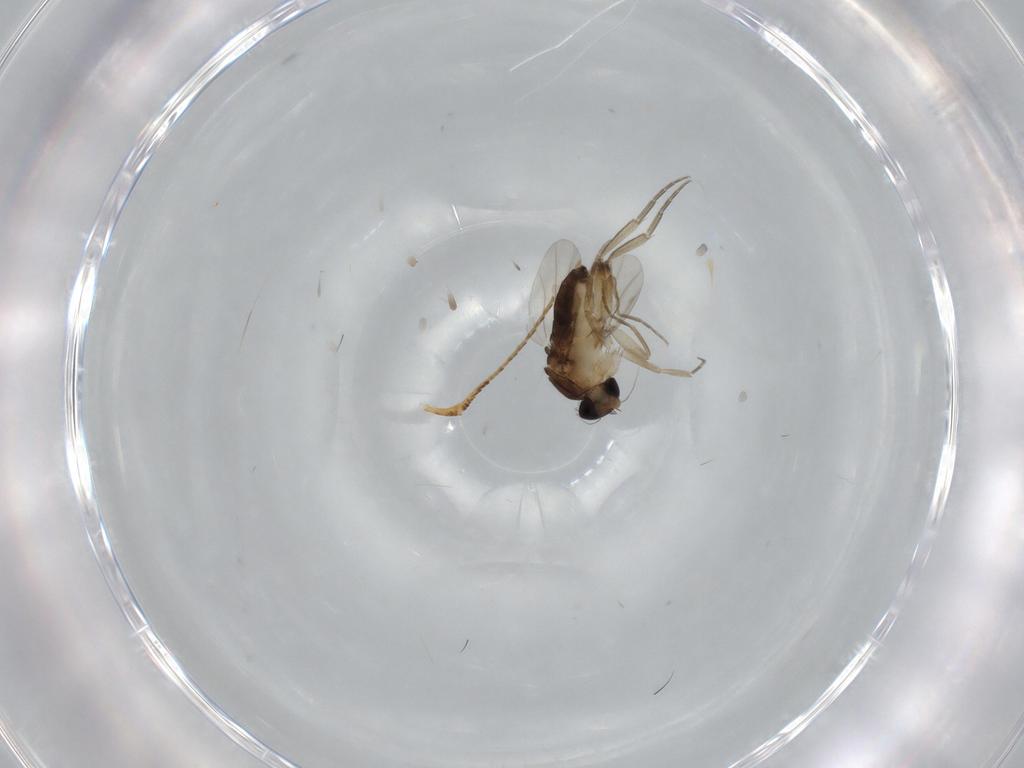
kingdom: Animalia
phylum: Arthropoda
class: Insecta
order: Diptera
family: Phoridae
